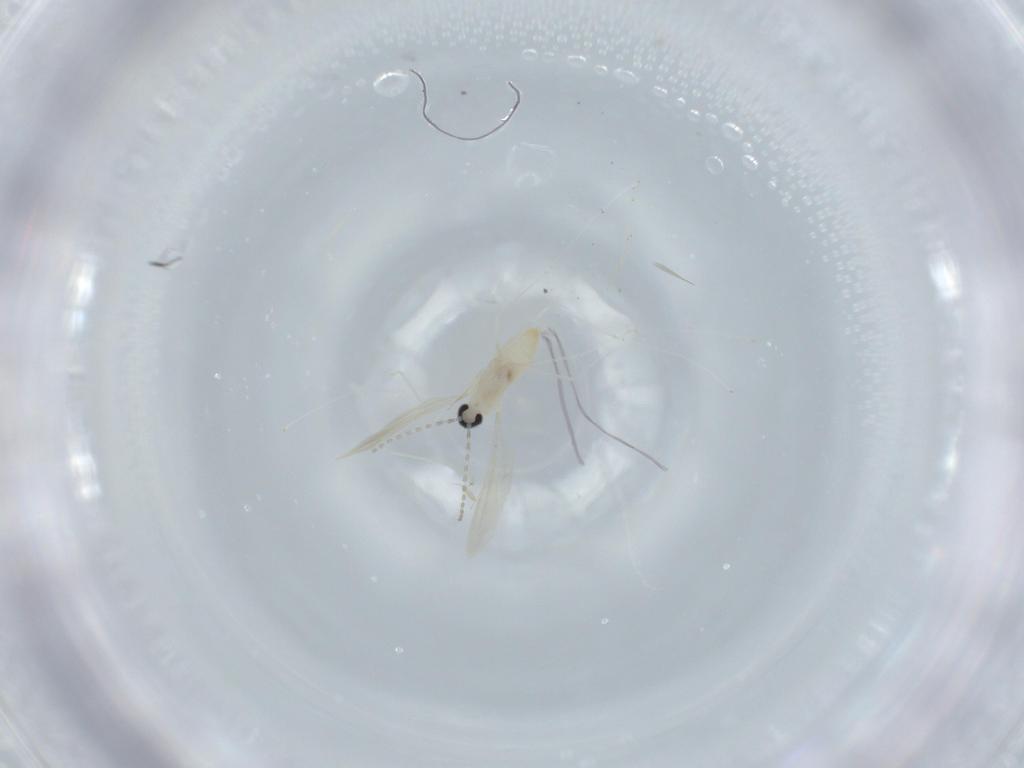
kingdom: Animalia
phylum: Arthropoda
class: Insecta
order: Diptera
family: Cecidomyiidae
